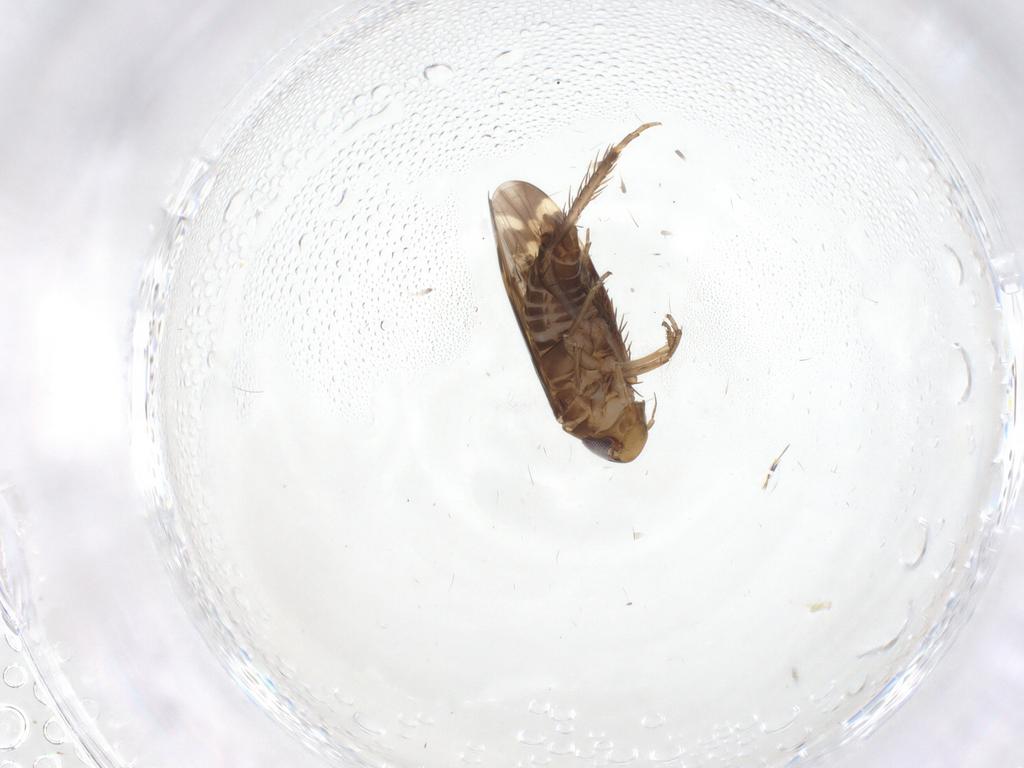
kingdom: Animalia
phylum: Arthropoda
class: Insecta
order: Hemiptera
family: Cicadellidae
